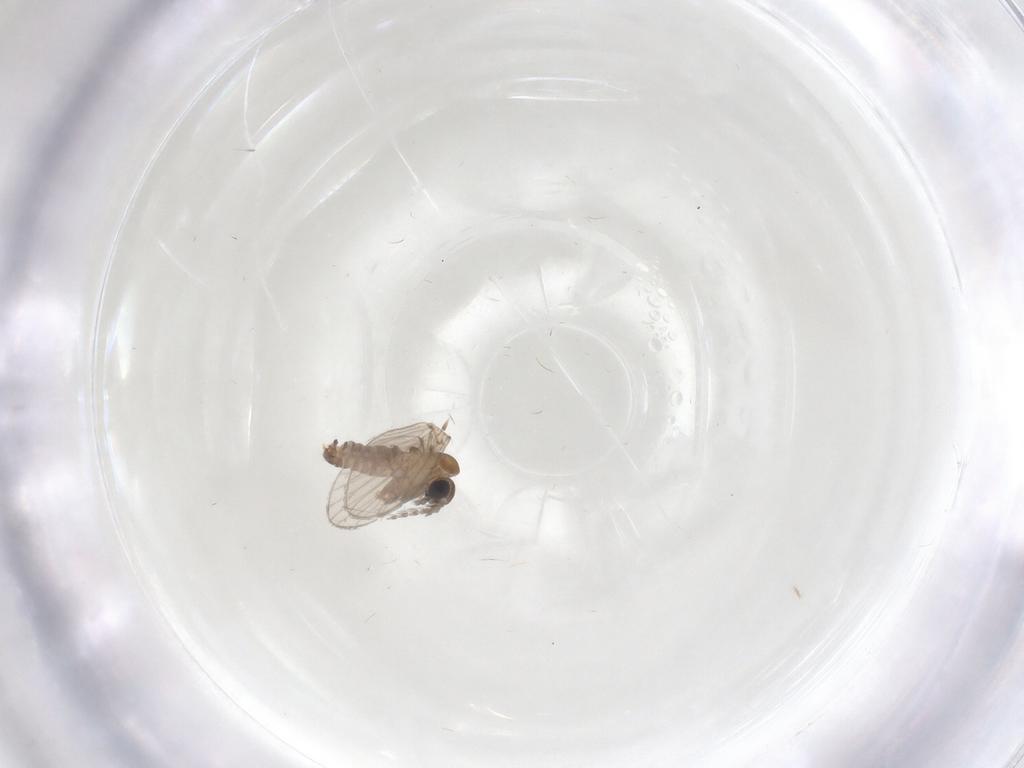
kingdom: Animalia
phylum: Arthropoda
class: Insecta
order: Diptera
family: Psychodidae
